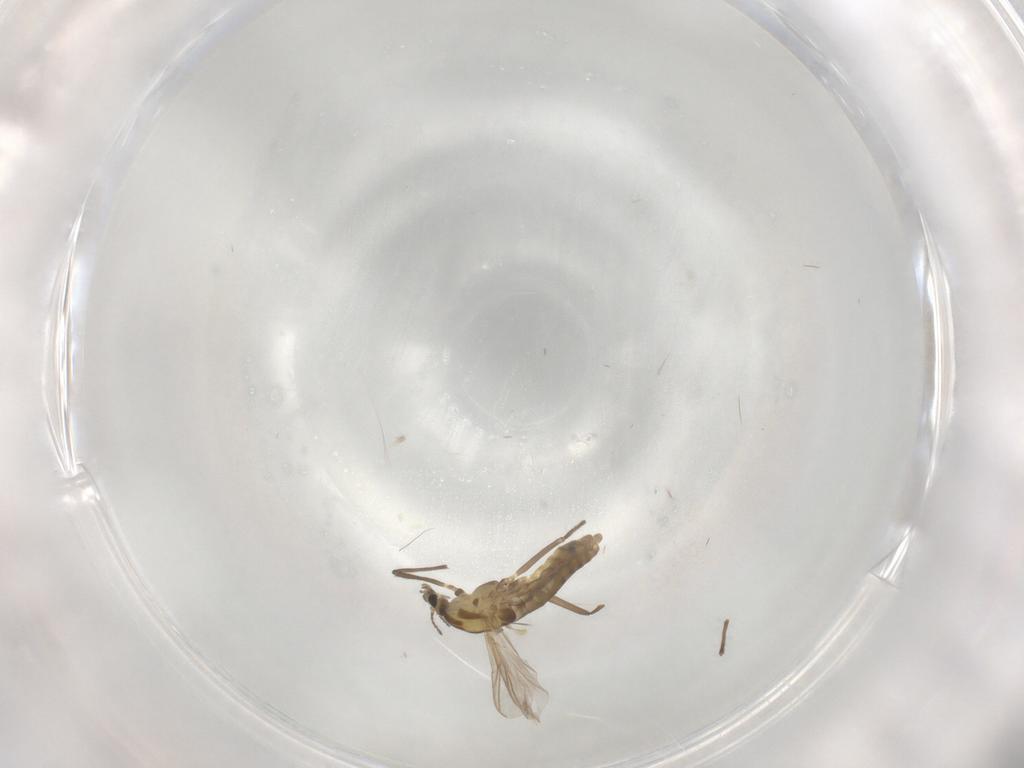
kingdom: Animalia
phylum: Arthropoda
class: Insecta
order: Diptera
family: Chironomidae
